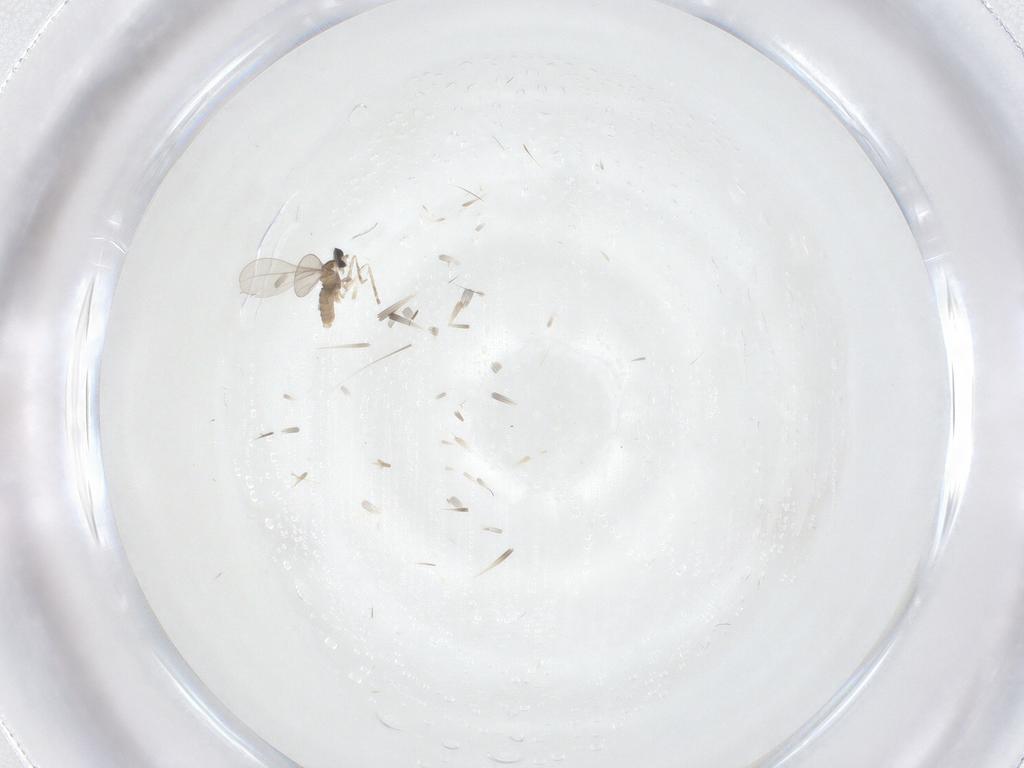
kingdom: Animalia
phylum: Arthropoda
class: Insecta
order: Diptera
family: Cecidomyiidae
